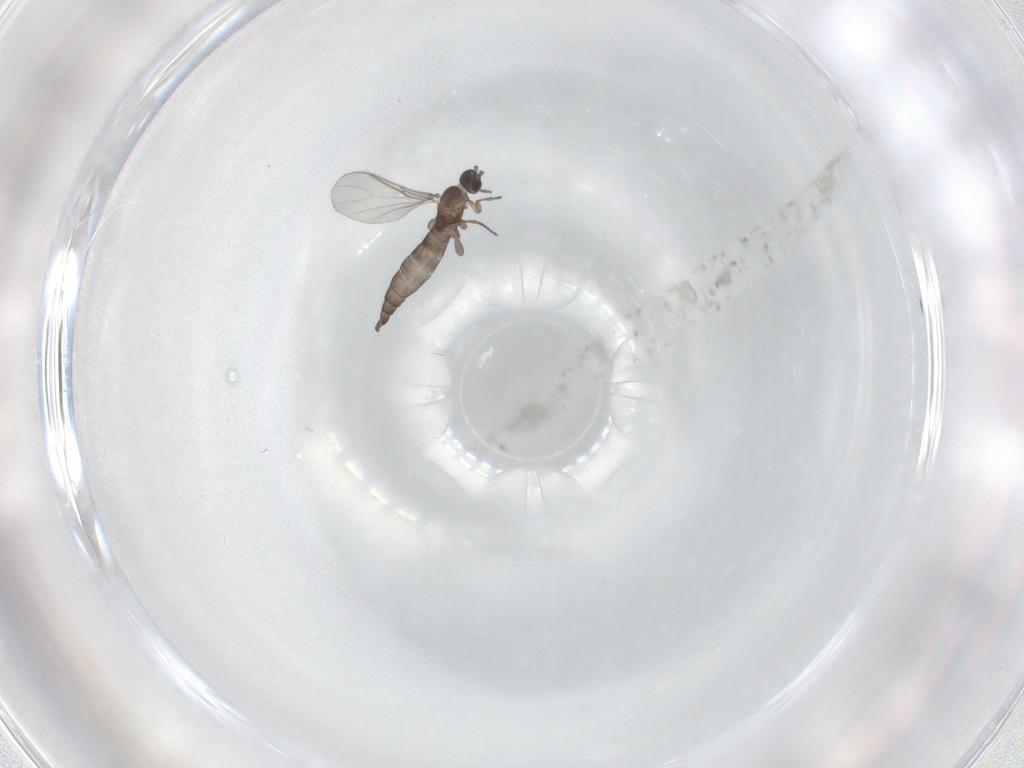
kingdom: Animalia
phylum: Arthropoda
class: Insecta
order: Diptera
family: Sciaridae
